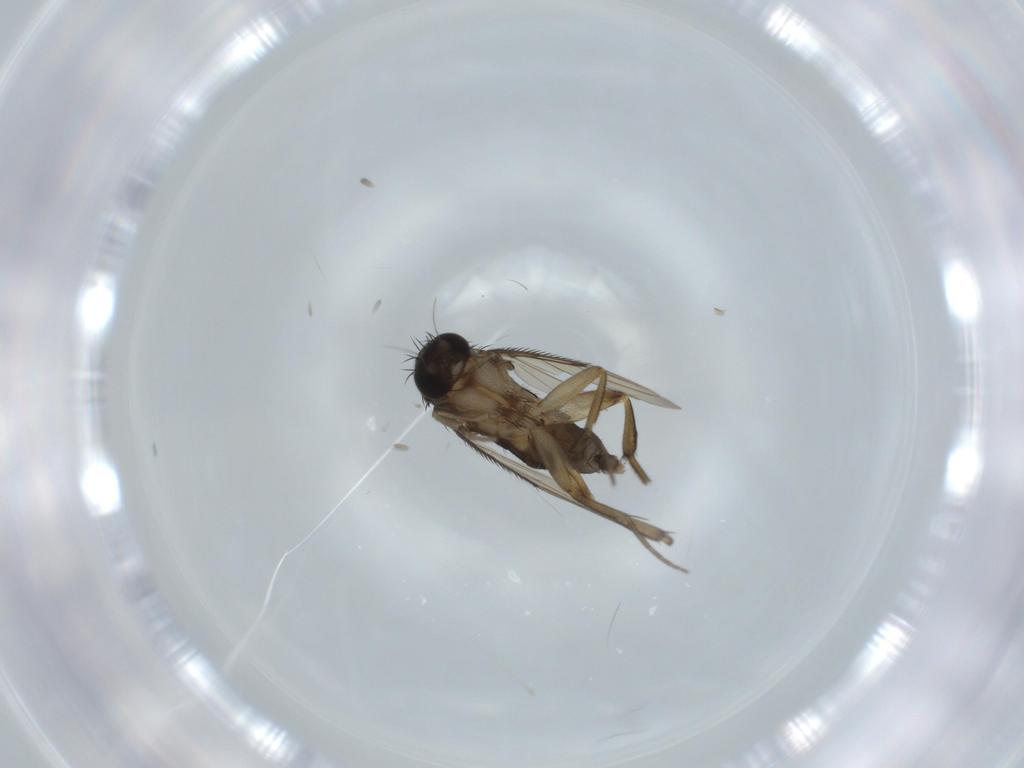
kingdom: Animalia
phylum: Arthropoda
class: Insecta
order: Diptera
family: Phoridae
